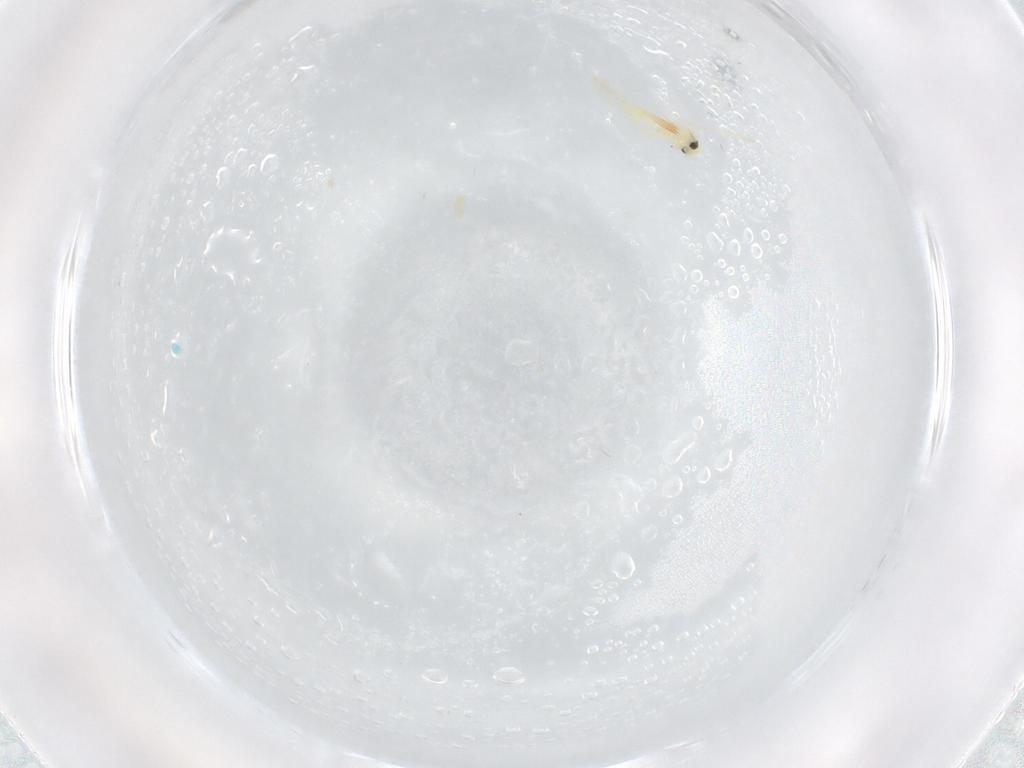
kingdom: Animalia
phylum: Arthropoda
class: Insecta
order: Hemiptera
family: Aleyrodidae
